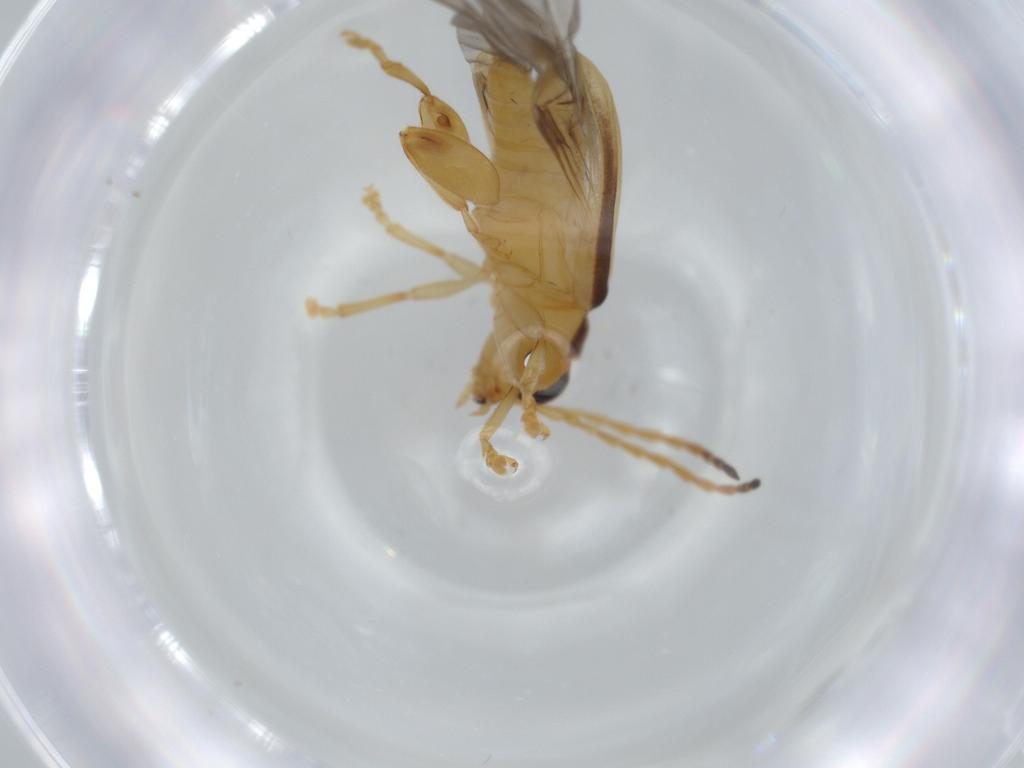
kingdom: Animalia
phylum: Arthropoda
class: Insecta
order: Coleoptera
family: Chrysomelidae
